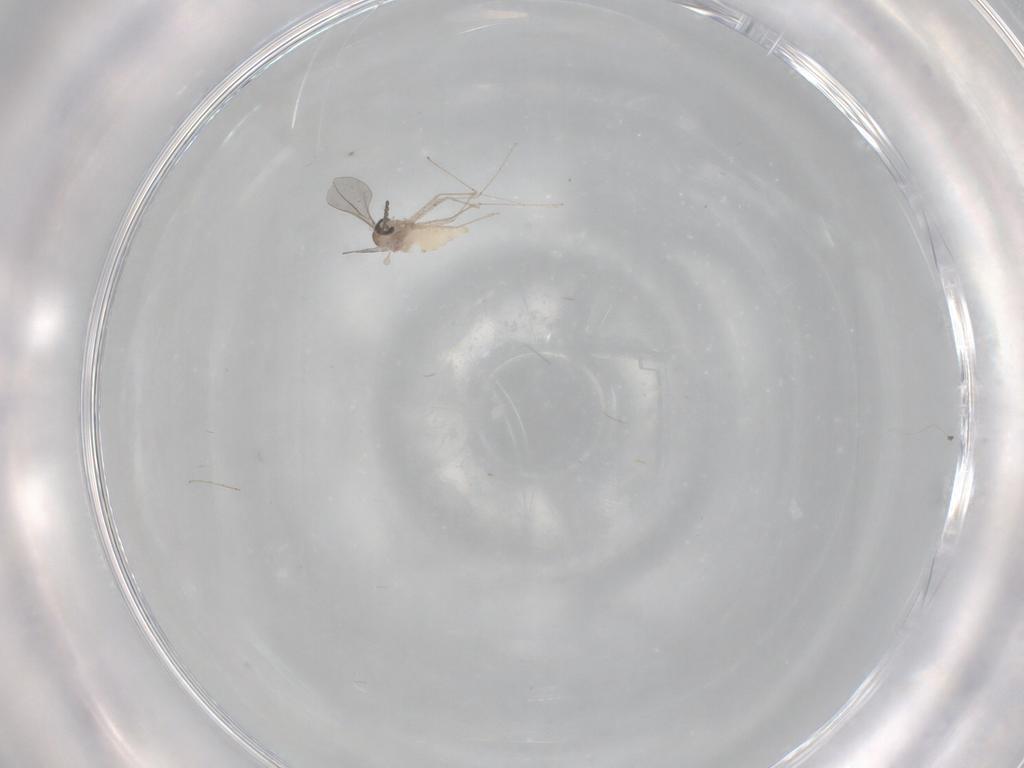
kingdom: Animalia
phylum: Arthropoda
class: Insecta
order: Diptera
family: Cecidomyiidae
